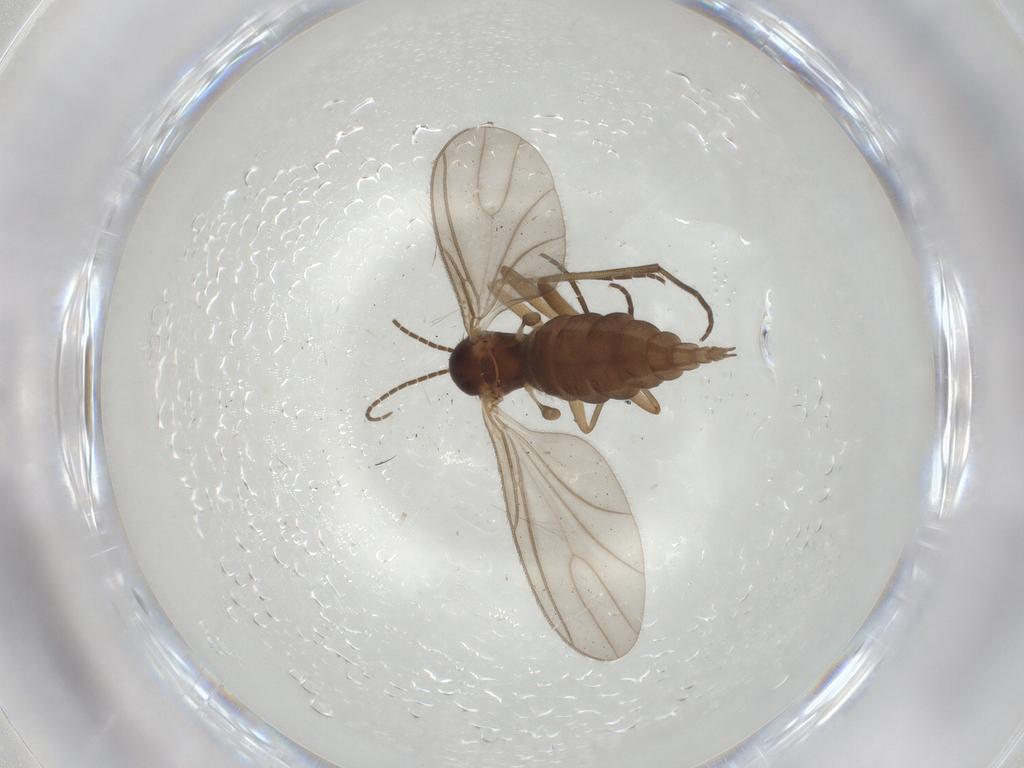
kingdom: Animalia
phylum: Arthropoda
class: Insecta
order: Diptera
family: Sciaridae
